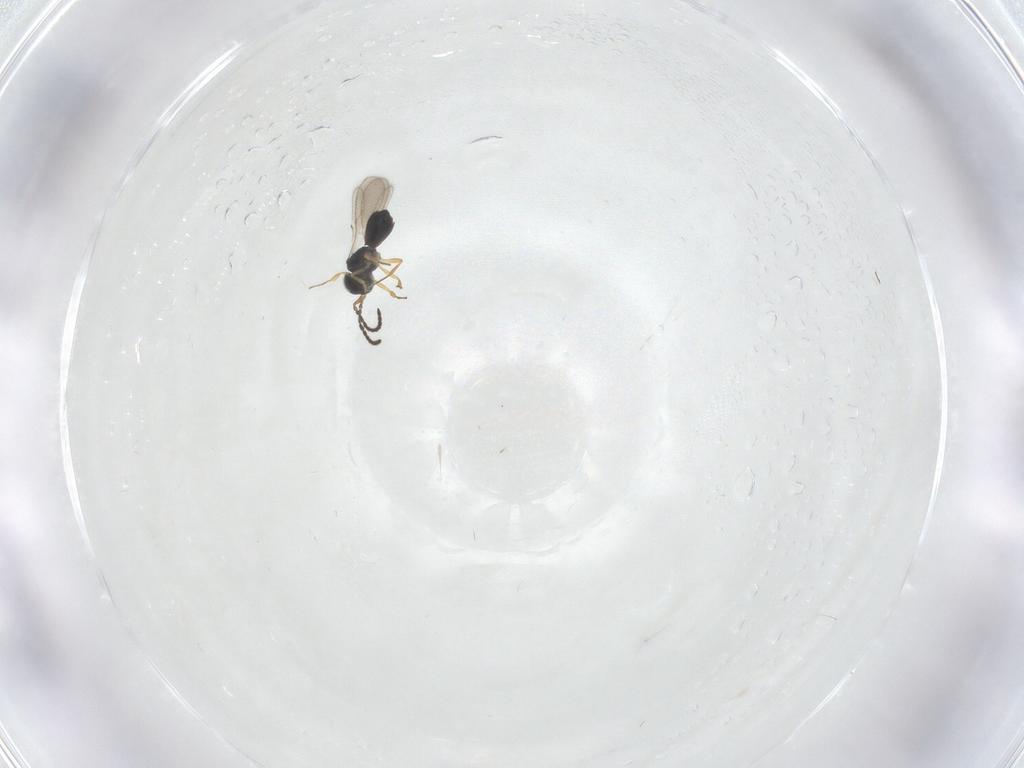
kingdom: Animalia
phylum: Arthropoda
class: Insecta
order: Hymenoptera
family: Scelionidae
